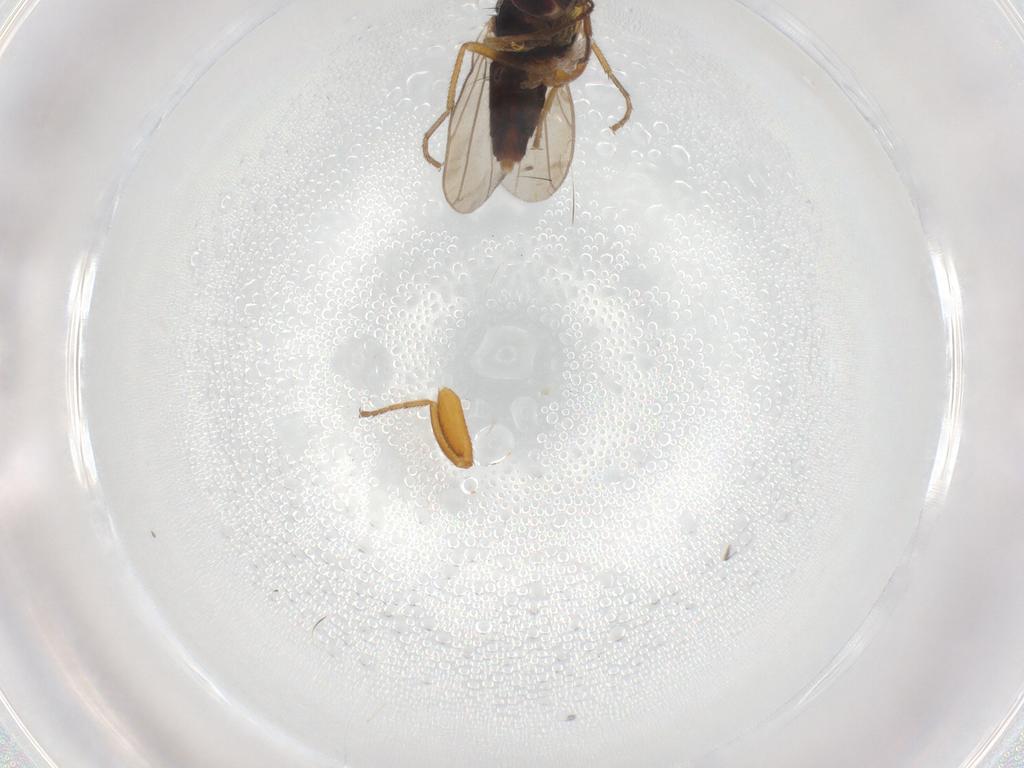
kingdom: Animalia
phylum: Arthropoda
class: Insecta
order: Diptera
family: Chloropidae
